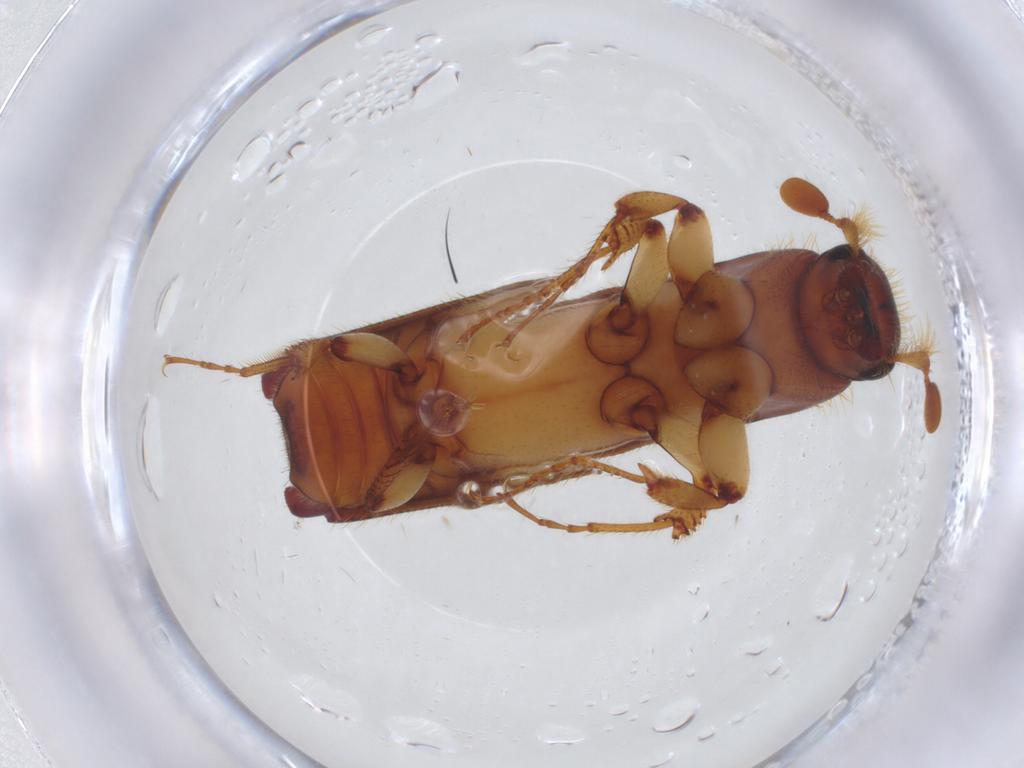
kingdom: Animalia
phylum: Arthropoda
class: Insecta
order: Coleoptera
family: Curculionidae
